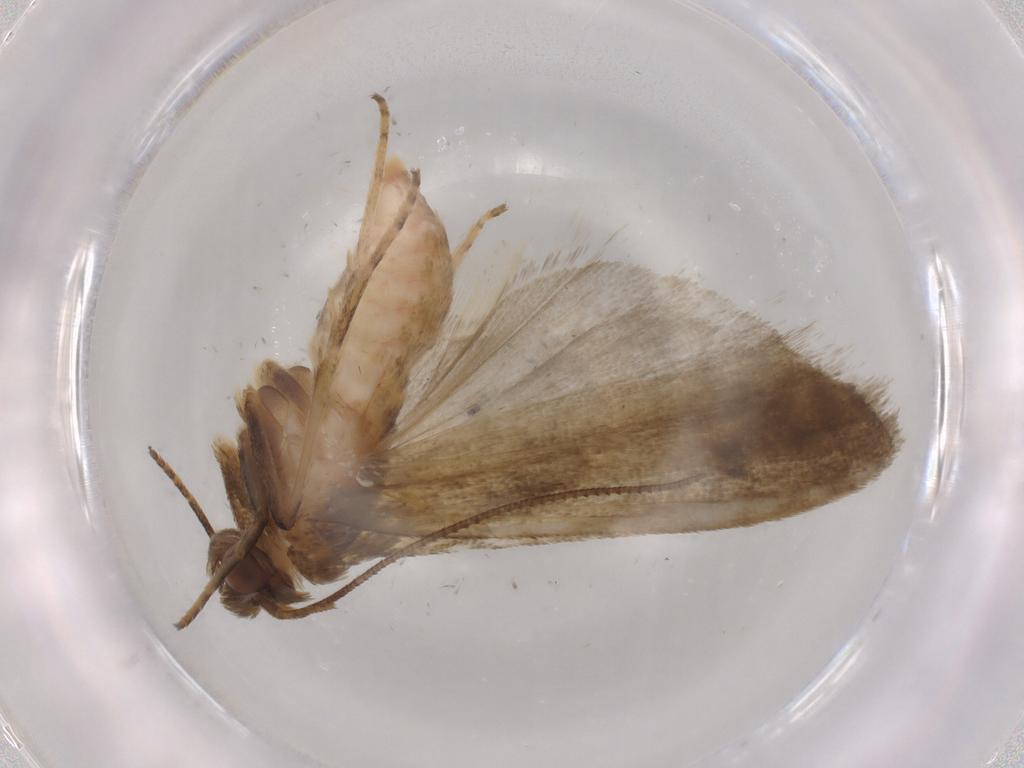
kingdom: Animalia
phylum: Arthropoda
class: Insecta
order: Lepidoptera
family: Noctuidae
